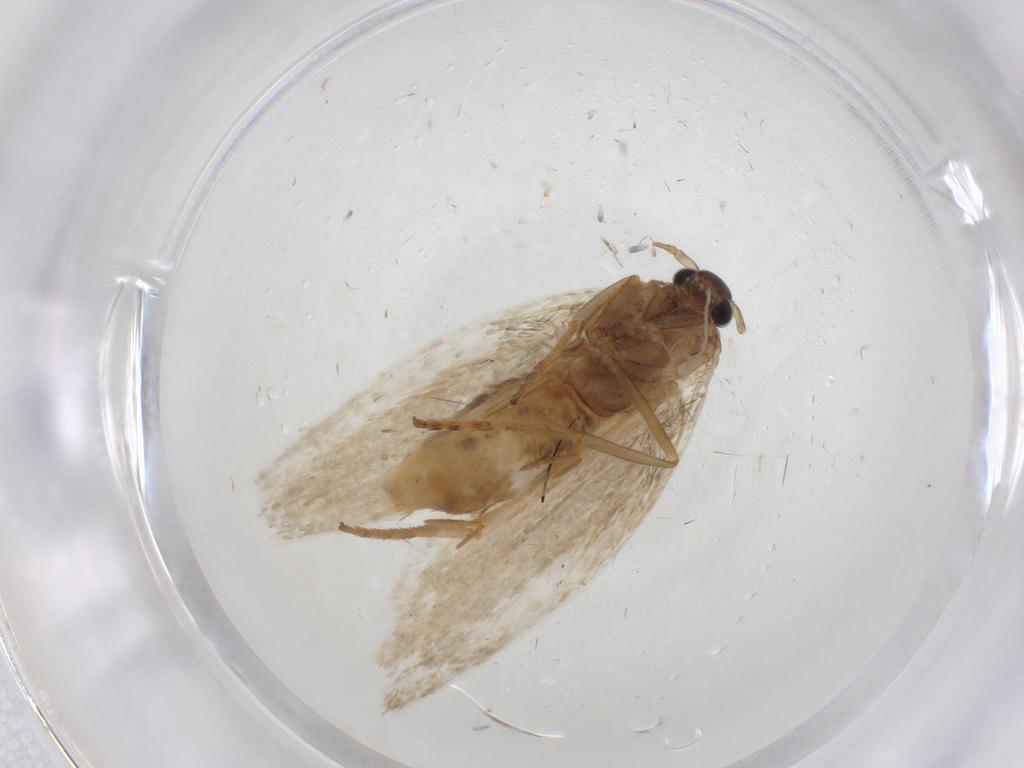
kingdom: Animalia
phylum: Arthropoda
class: Insecta
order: Lepidoptera
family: Erebidae
